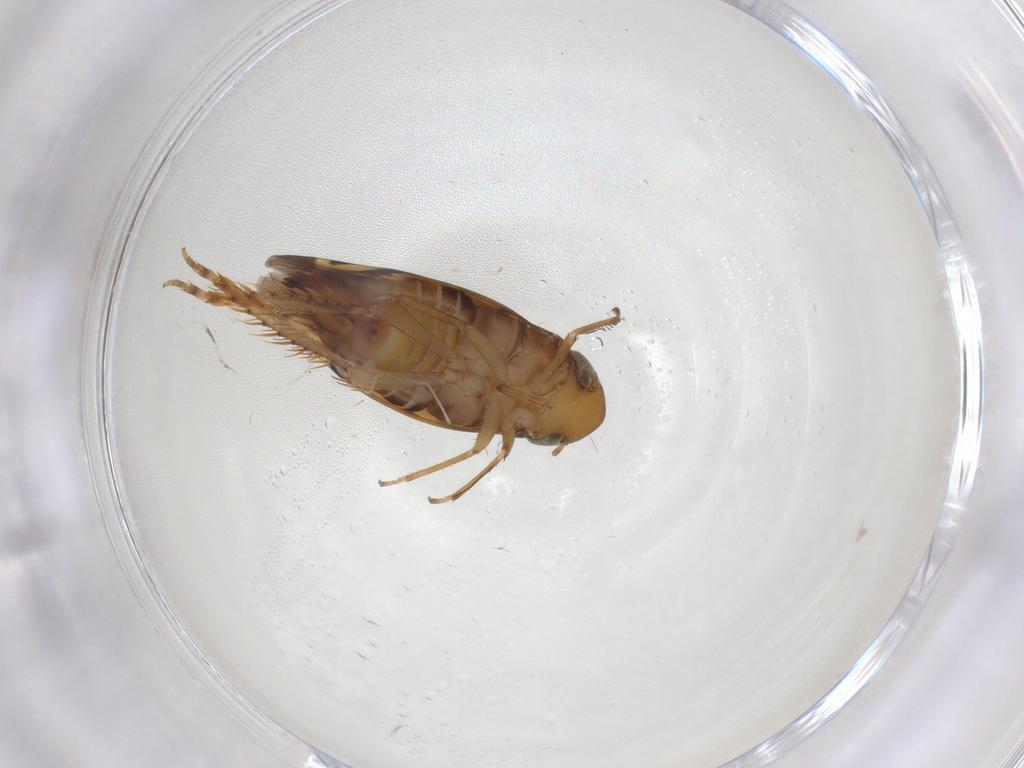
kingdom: Animalia
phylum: Arthropoda
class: Insecta
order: Hemiptera
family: Cicadellidae
